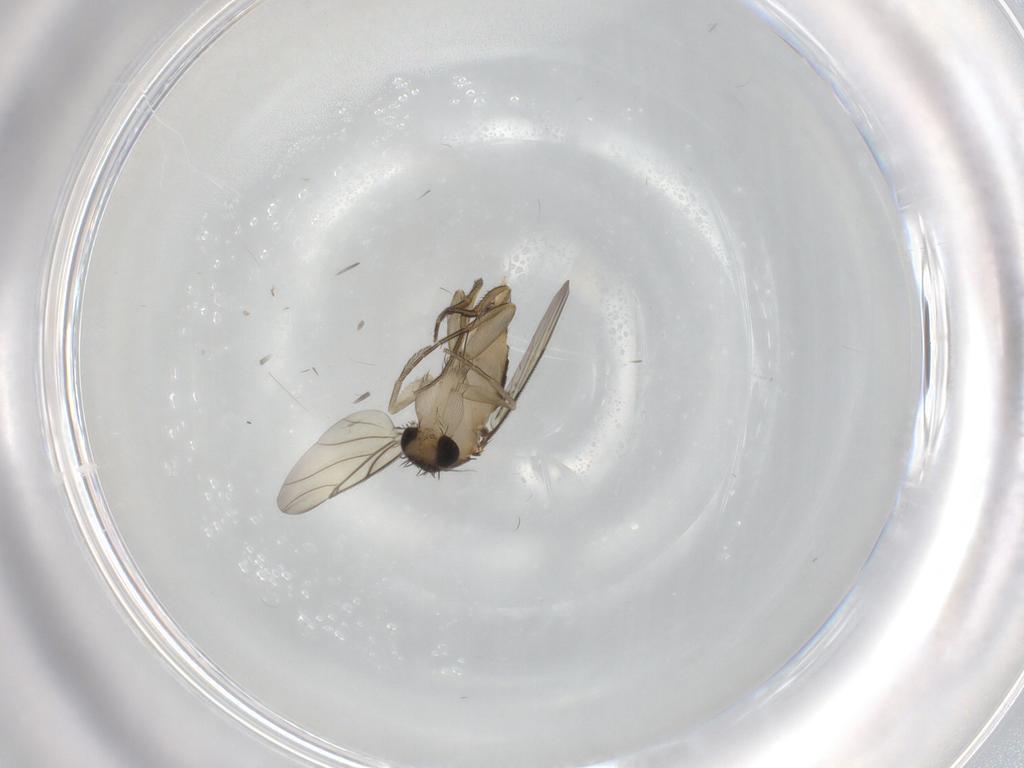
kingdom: Animalia
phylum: Arthropoda
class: Insecta
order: Diptera
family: Phoridae
